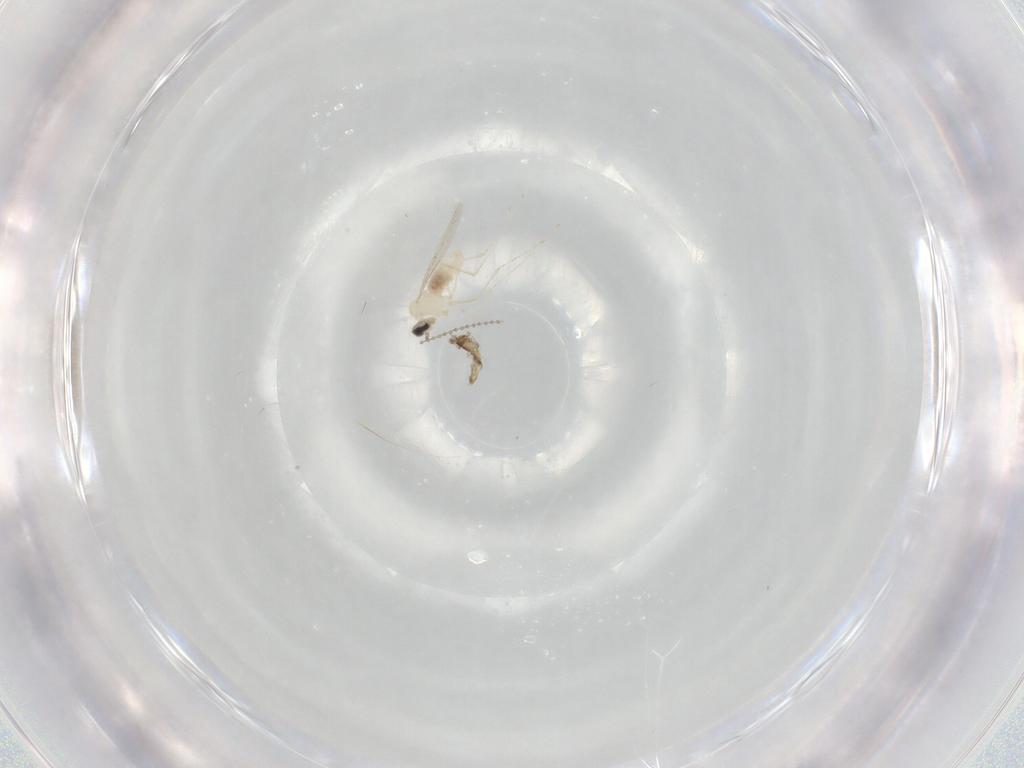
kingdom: Animalia
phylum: Arthropoda
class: Insecta
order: Diptera
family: Cecidomyiidae
